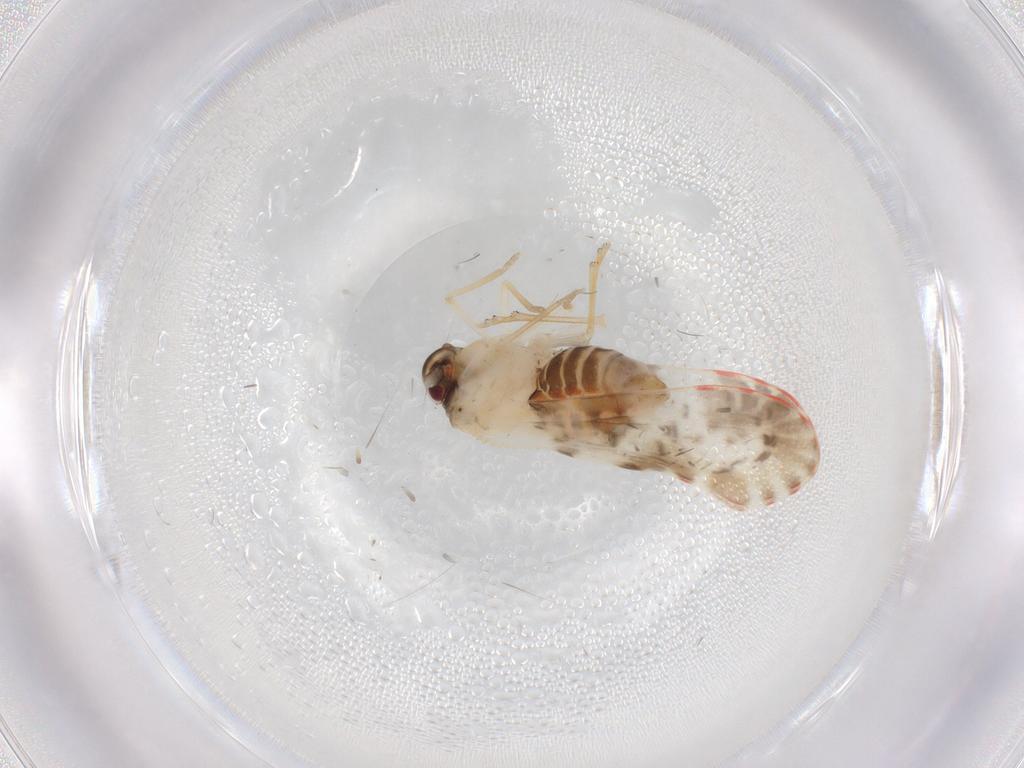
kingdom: Animalia
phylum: Arthropoda
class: Insecta
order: Hemiptera
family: Derbidae
